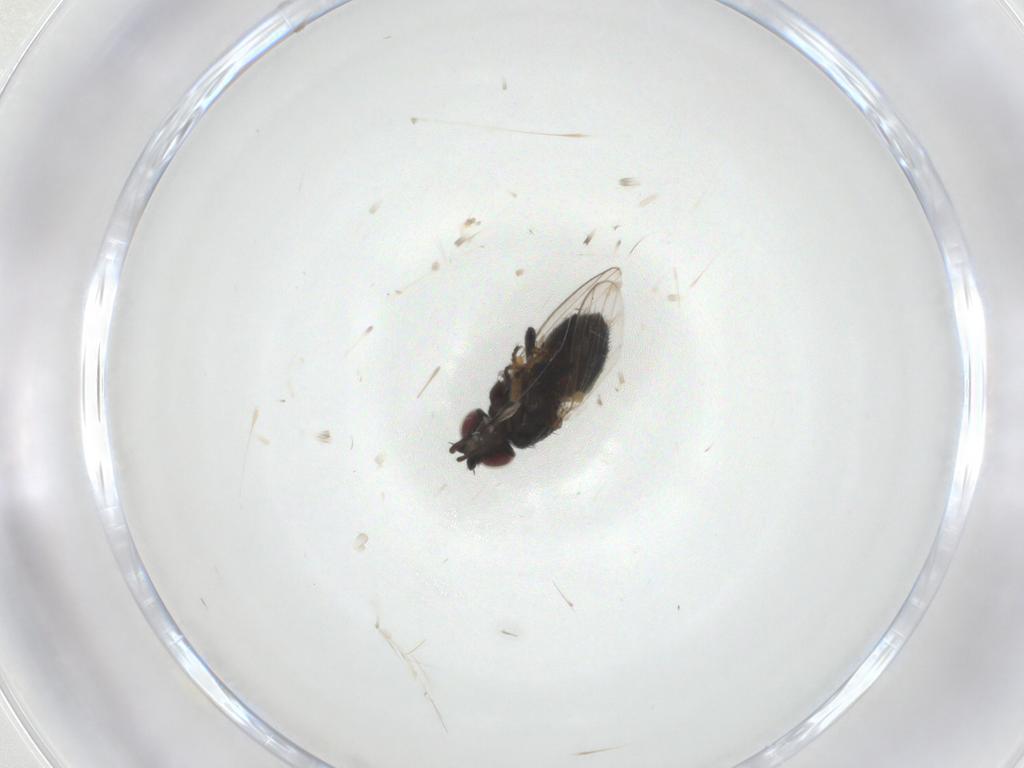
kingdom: Animalia
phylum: Arthropoda
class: Insecta
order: Diptera
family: Milichiidae
